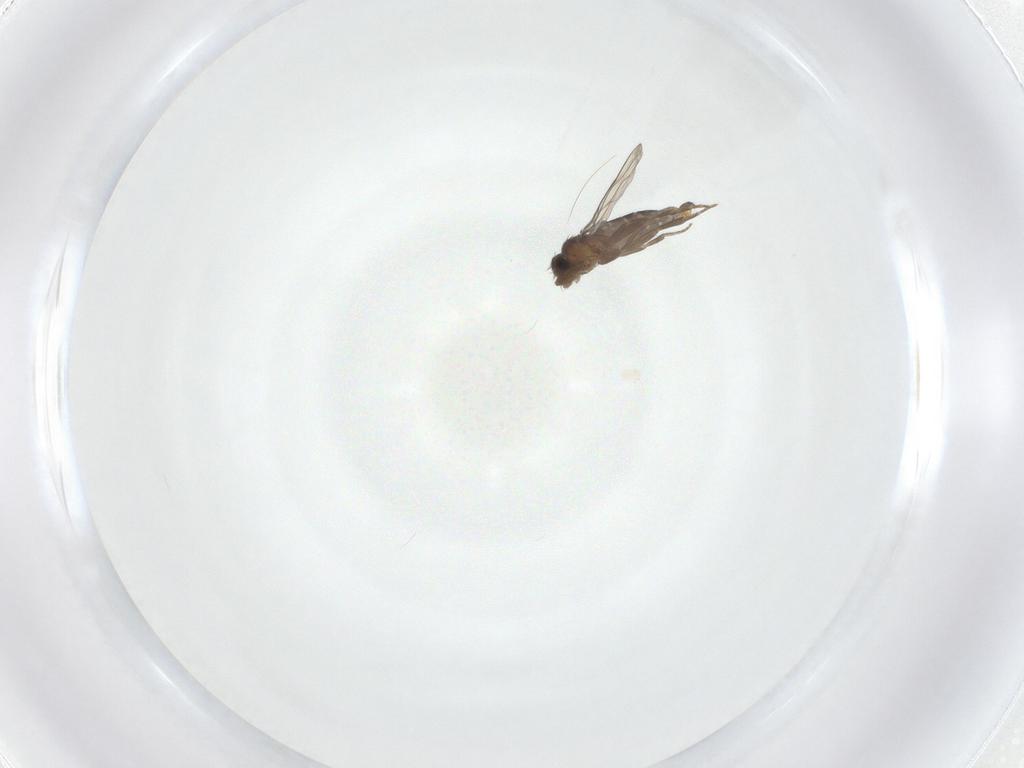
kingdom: Animalia
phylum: Arthropoda
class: Insecta
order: Diptera
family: Phoridae
